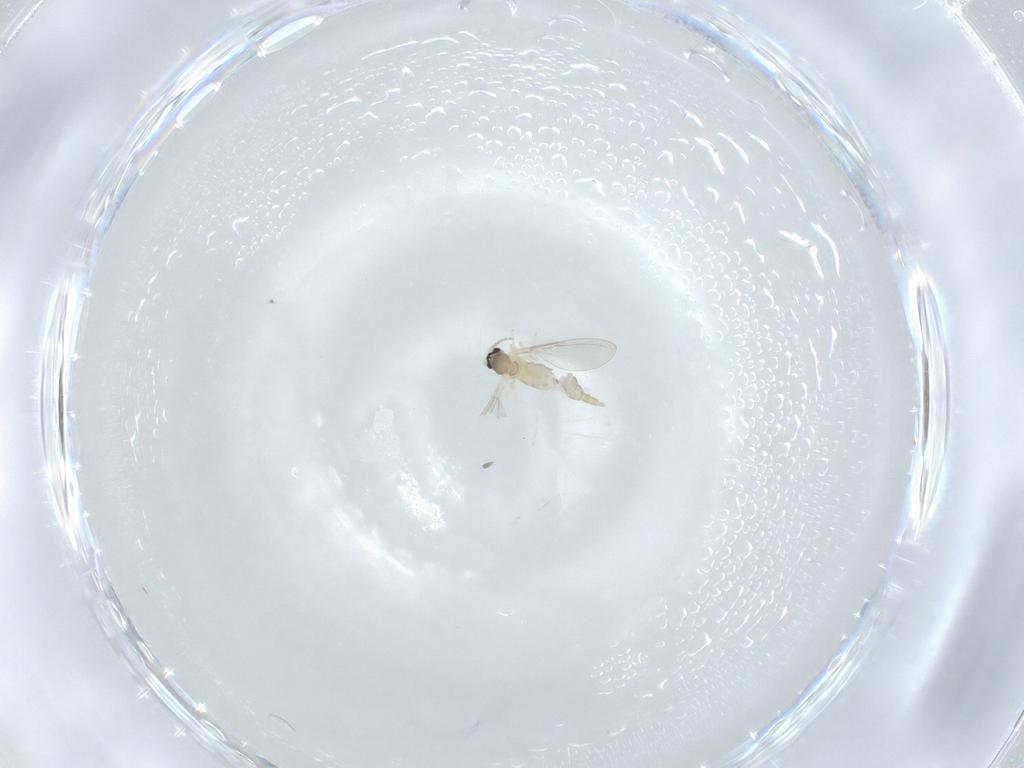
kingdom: Animalia
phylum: Arthropoda
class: Insecta
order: Diptera
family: Cecidomyiidae
